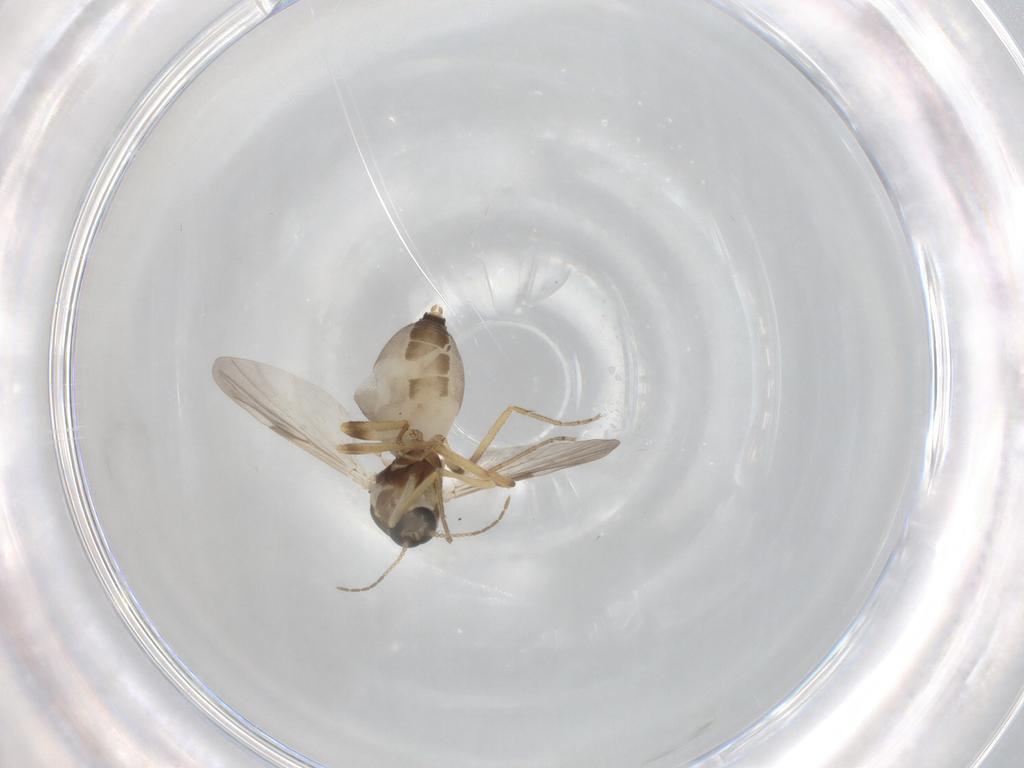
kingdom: Animalia
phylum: Arthropoda
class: Insecta
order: Diptera
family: Ceratopogonidae
